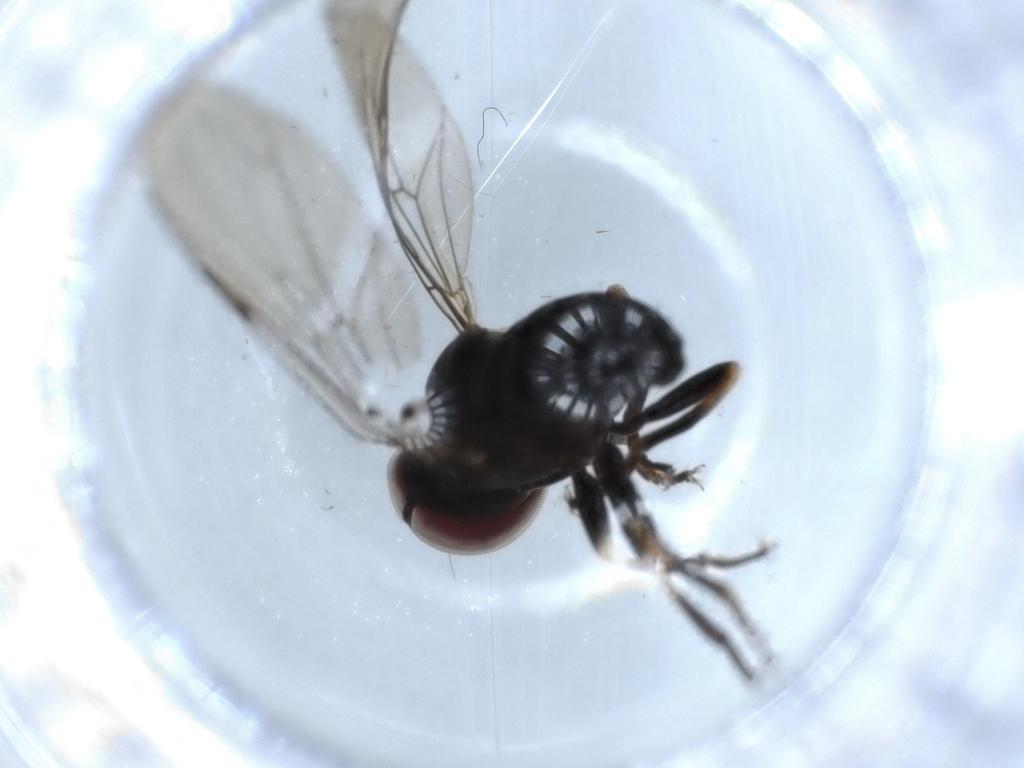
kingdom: Animalia
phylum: Arthropoda
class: Insecta
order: Diptera
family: Pipunculidae
